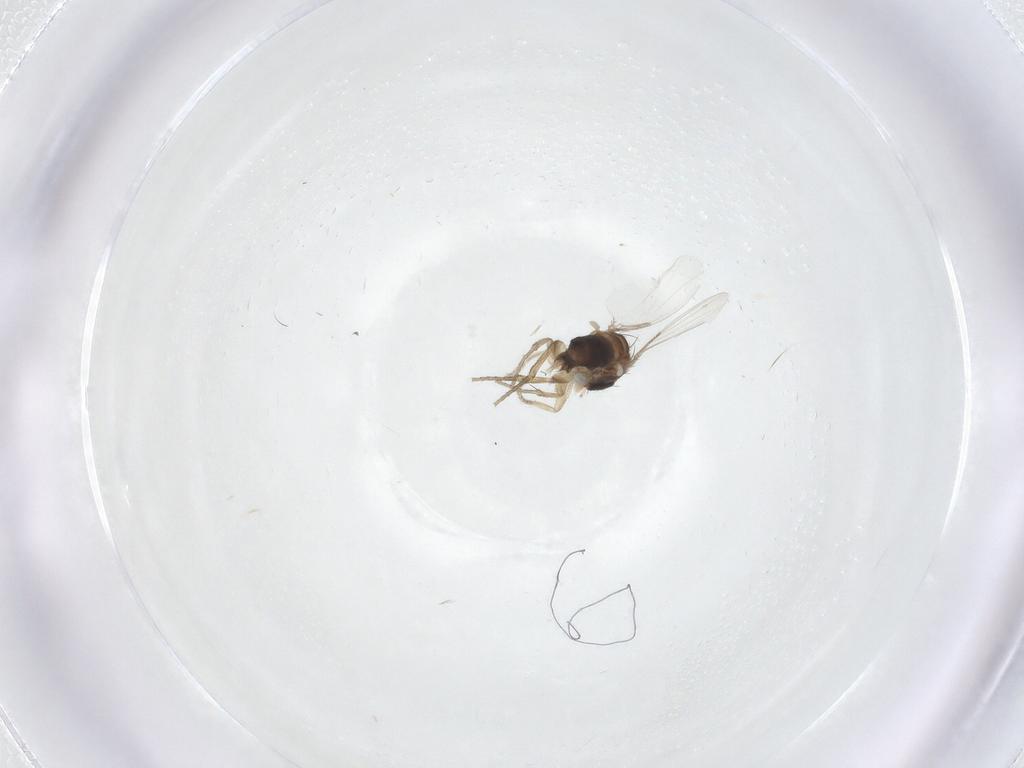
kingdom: Animalia
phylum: Arthropoda
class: Insecta
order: Diptera
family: Phoridae
